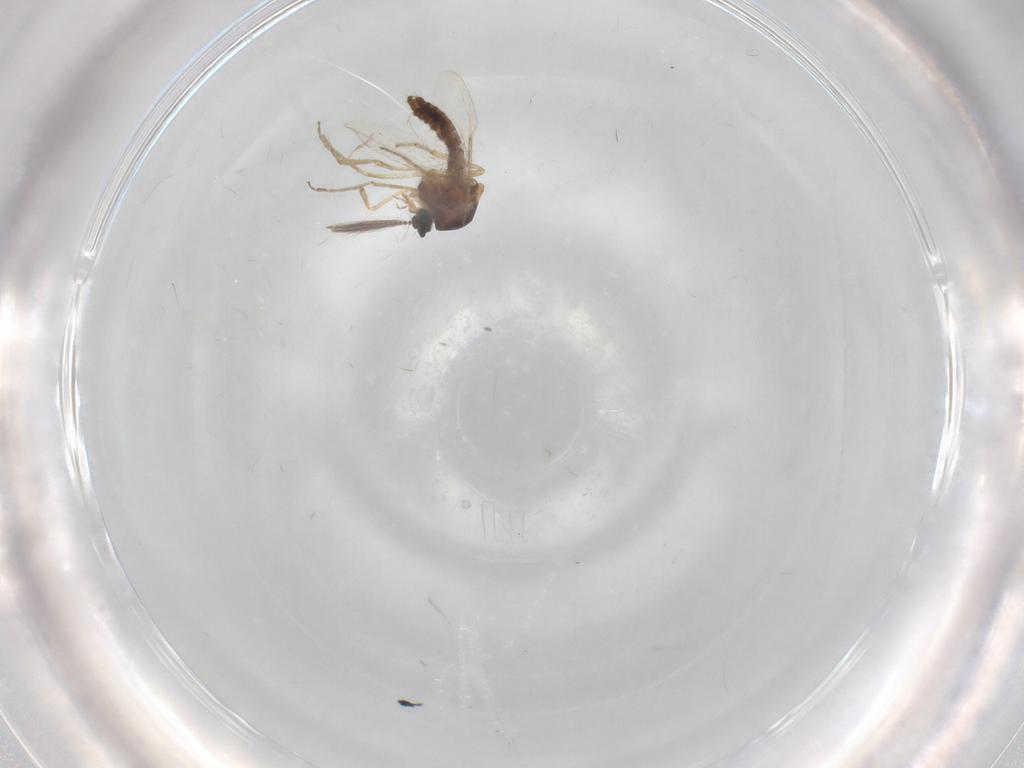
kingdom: Animalia
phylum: Arthropoda
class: Insecta
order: Diptera
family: Ceratopogonidae
